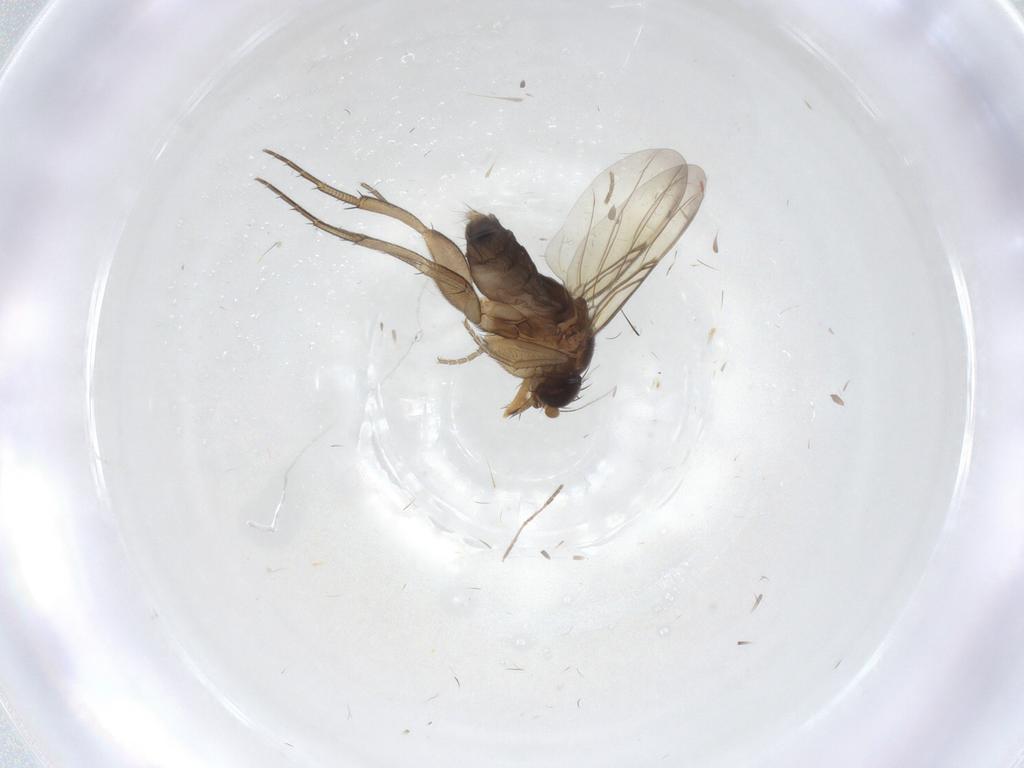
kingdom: Animalia
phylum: Arthropoda
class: Insecta
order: Diptera
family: Phoridae
